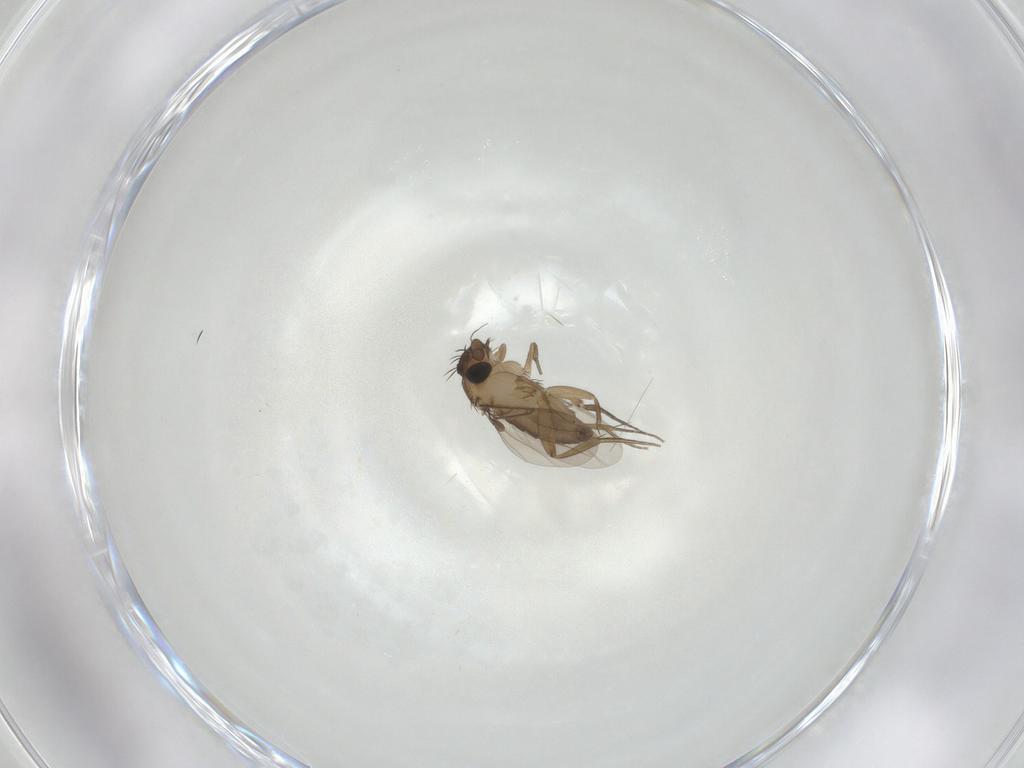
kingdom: Animalia
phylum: Arthropoda
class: Insecta
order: Diptera
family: Phoridae
